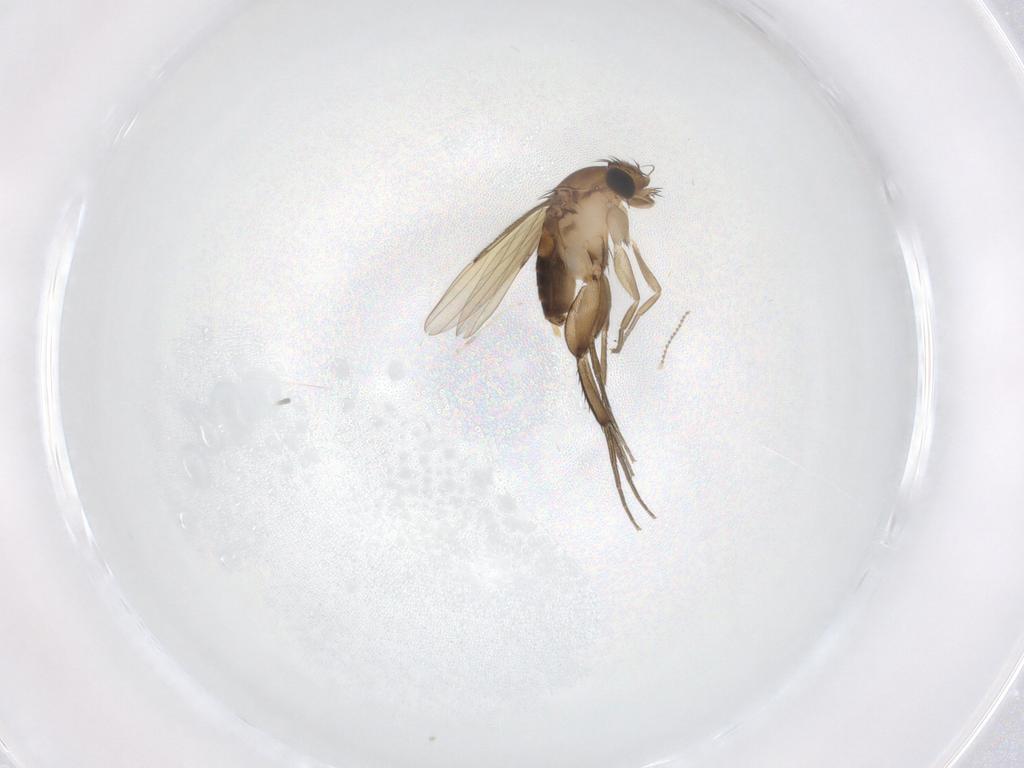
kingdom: Animalia
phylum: Arthropoda
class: Insecta
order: Diptera
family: Phoridae
